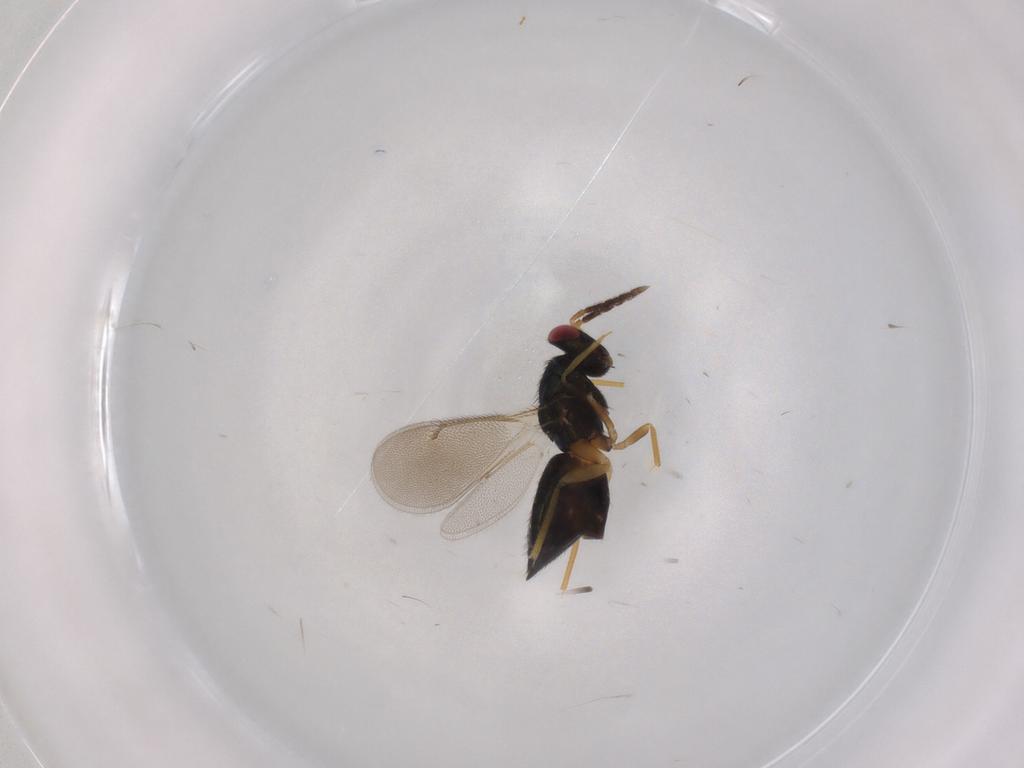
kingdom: Animalia
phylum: Arthropoda
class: Insecta
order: Hymenoptera
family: Eulophidae
